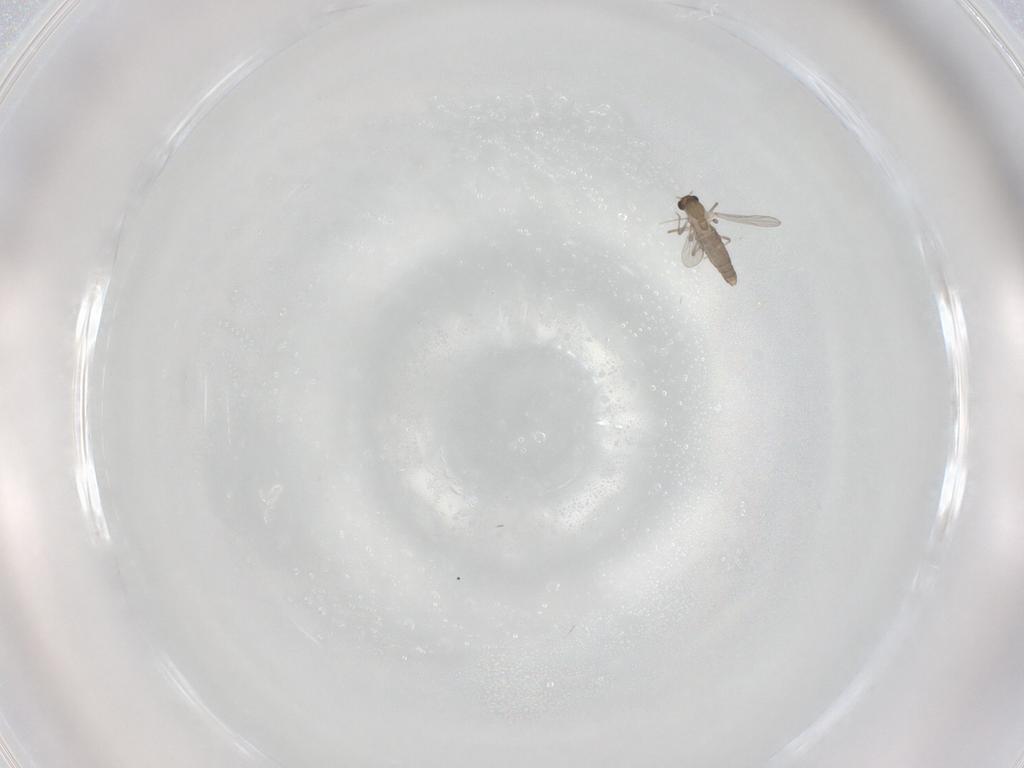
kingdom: Animalia
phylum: Arthropoda
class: Insecta
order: Diptera
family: Chironomidae
